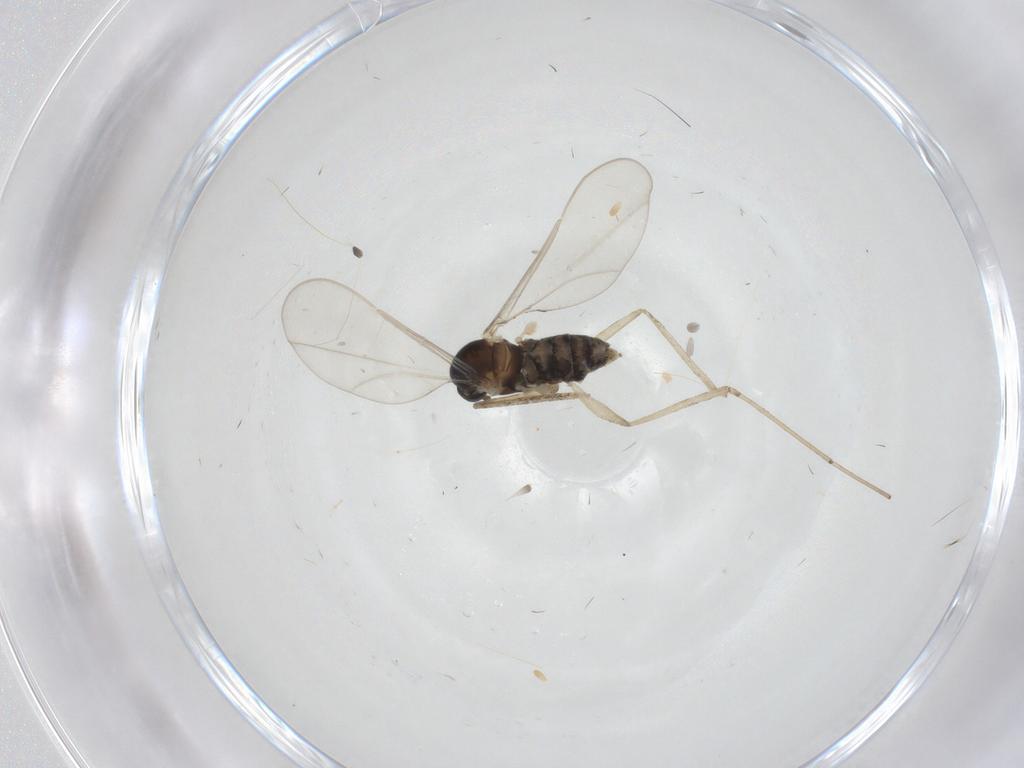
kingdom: Animalia
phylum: Arthropoda
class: Insecta
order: Diptera
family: Cecidomyiidae
